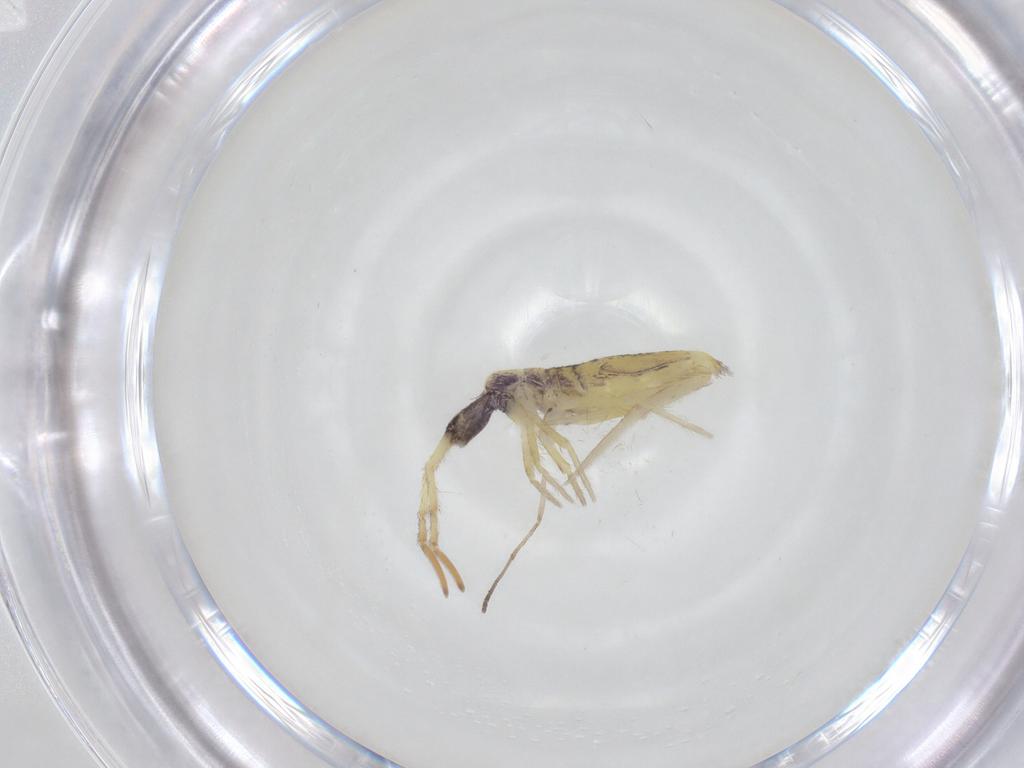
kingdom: Animalia
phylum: Arthropoda
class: Collembola
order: Entomobryomorpha
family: Entomobryidae
